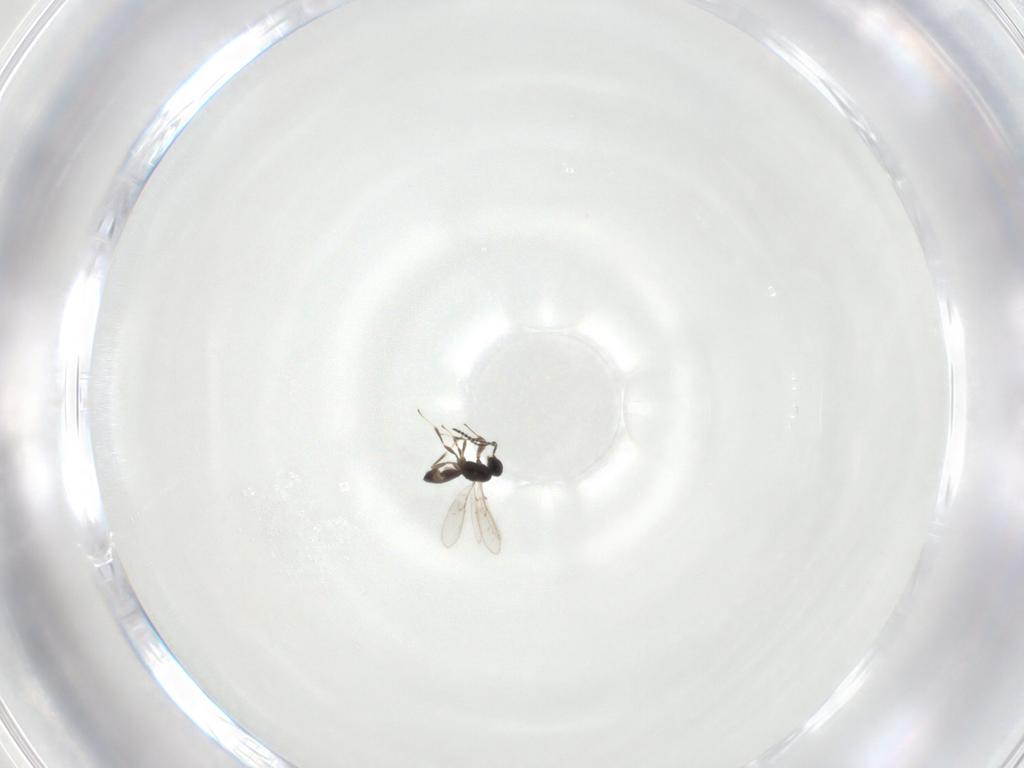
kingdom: Animalia
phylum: Arthropoda
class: Insecta
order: Hymenoptera
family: Scelionidae
